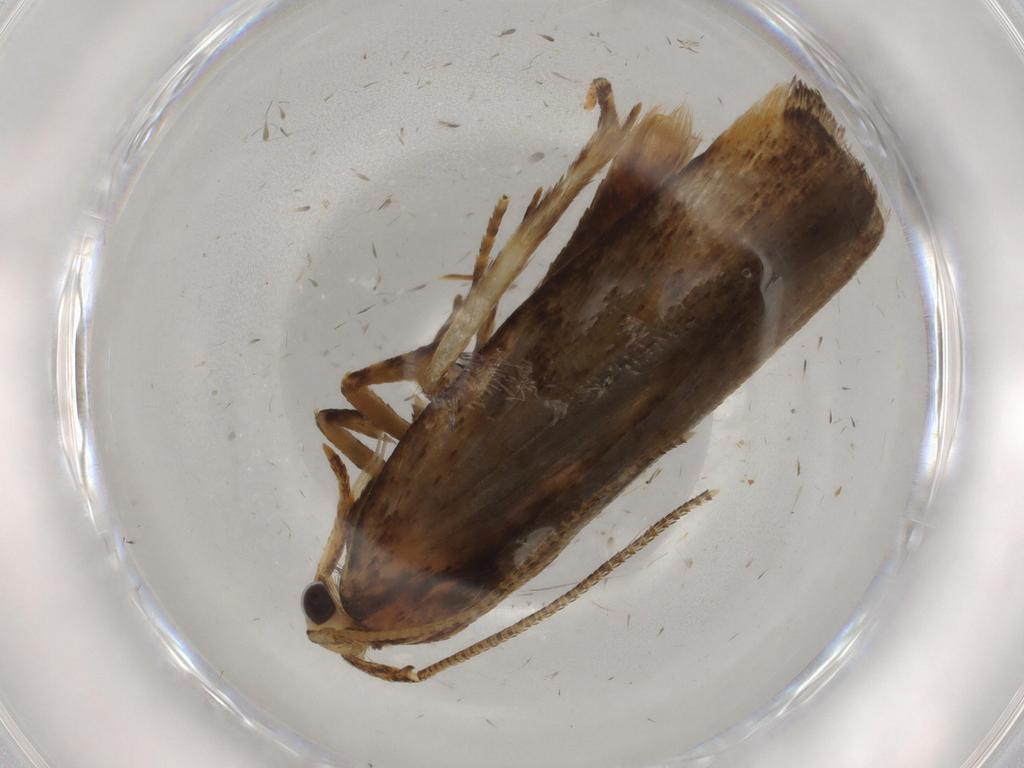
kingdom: Animalia
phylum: Arthropoda
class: Insecta
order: Lepidoptera
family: Autostichidae
